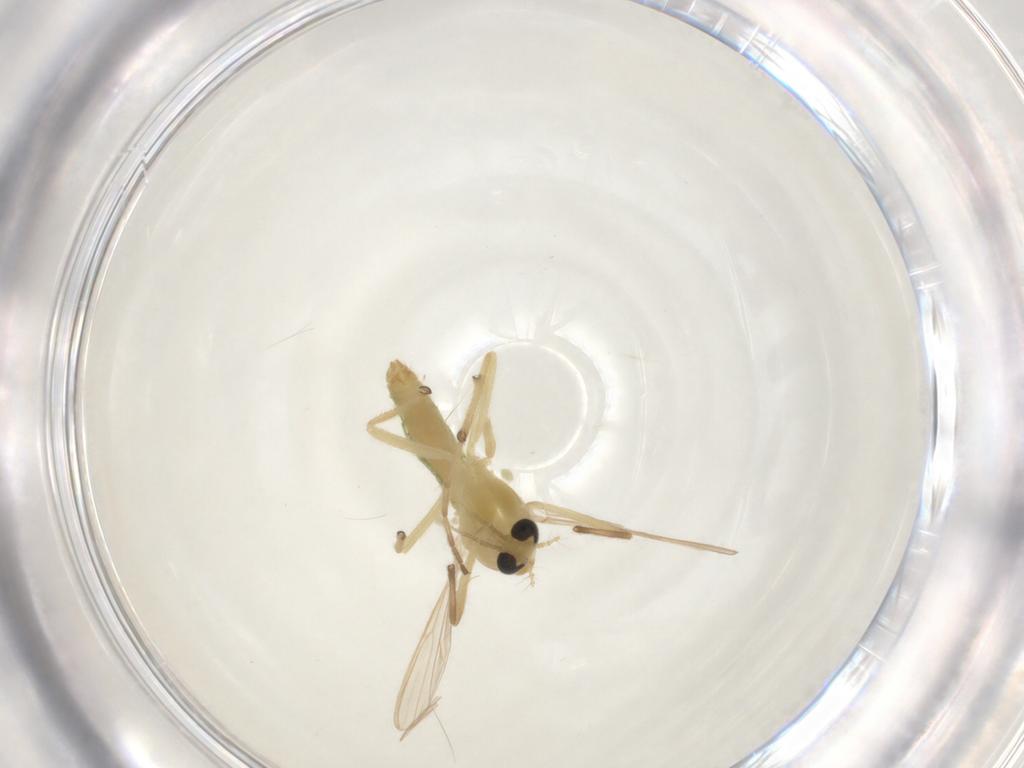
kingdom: Animalia
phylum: Arthropoda
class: Insecta
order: Diptera
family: Chironomidae
